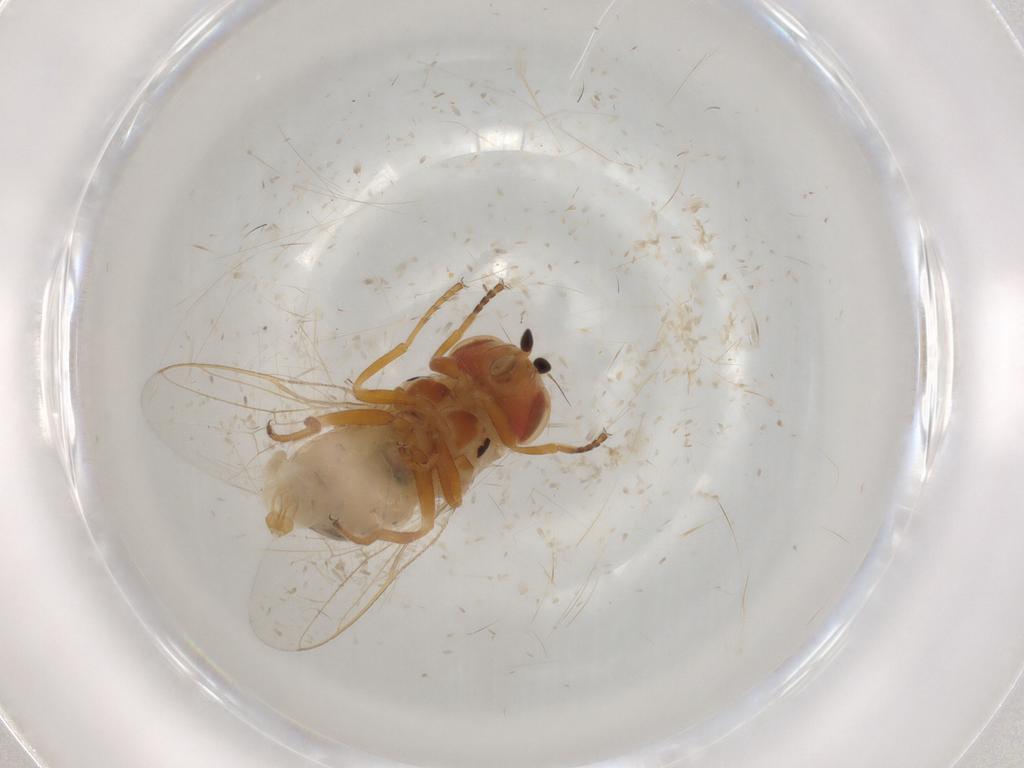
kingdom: Animalia
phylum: Arthropoda
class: Insecta
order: Diptera
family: Chloropidae
